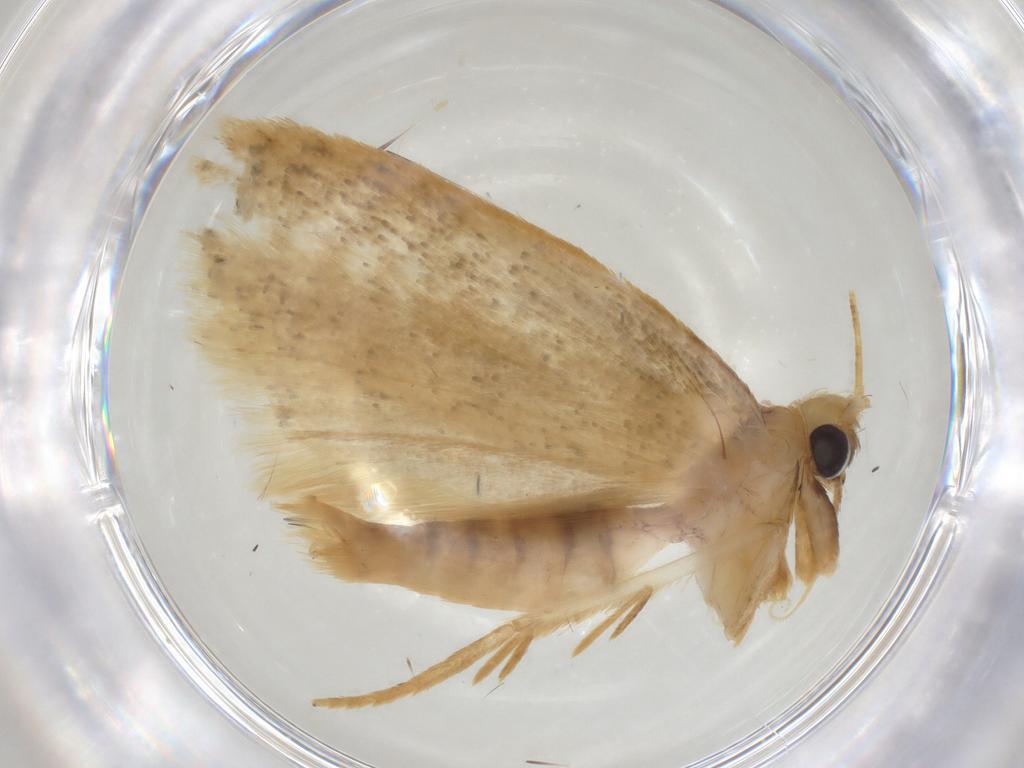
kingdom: Animalia
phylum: Arthropoda
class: Insecta
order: Lepidoptera
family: Depressariidae
